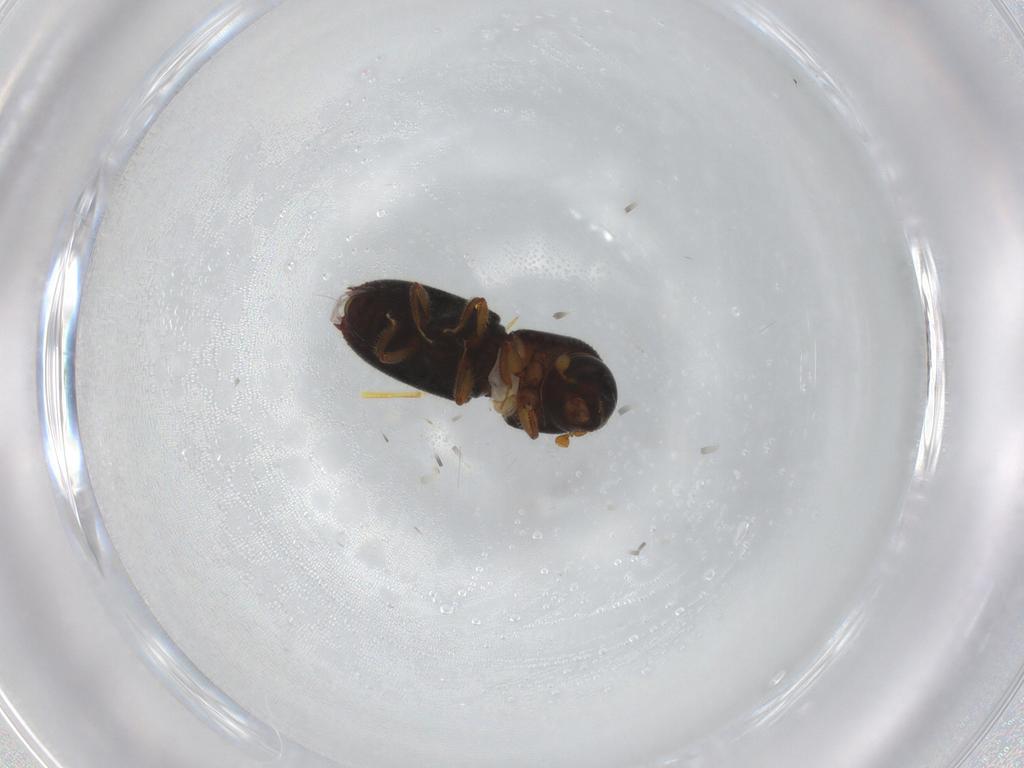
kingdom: Animalia
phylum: Arthropoda
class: Insecta
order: Coleoptera
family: Curculionidae
